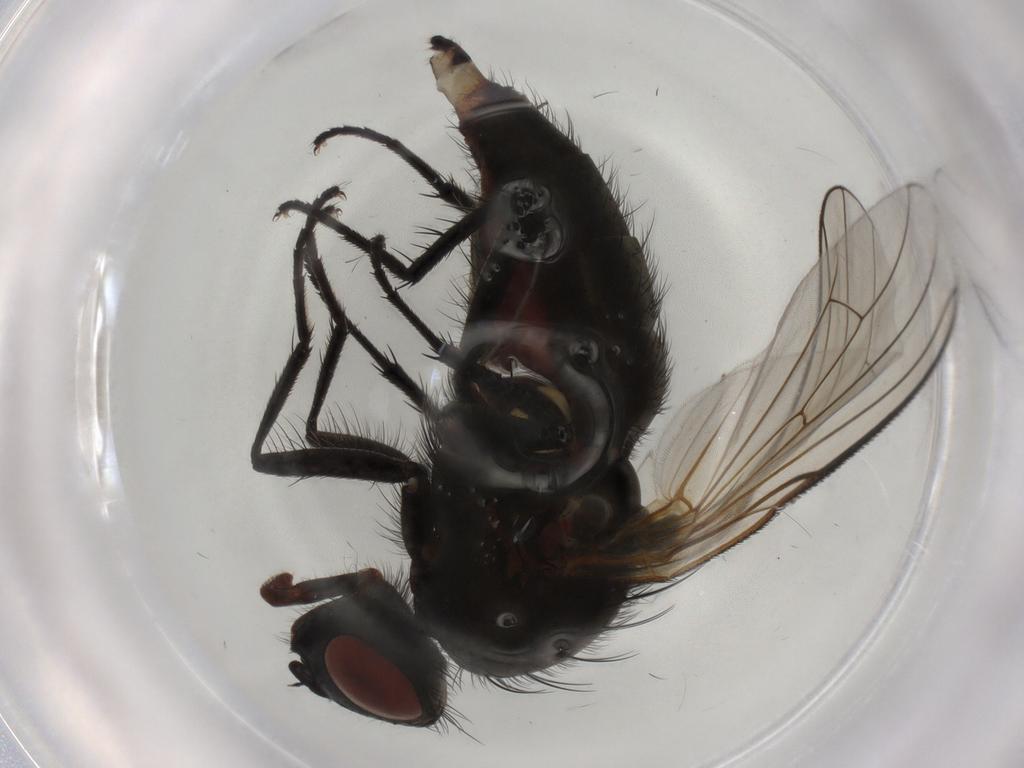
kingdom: Animalia
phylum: Arthropoda
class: Insecta
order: Diptera
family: Anthomyiidae
